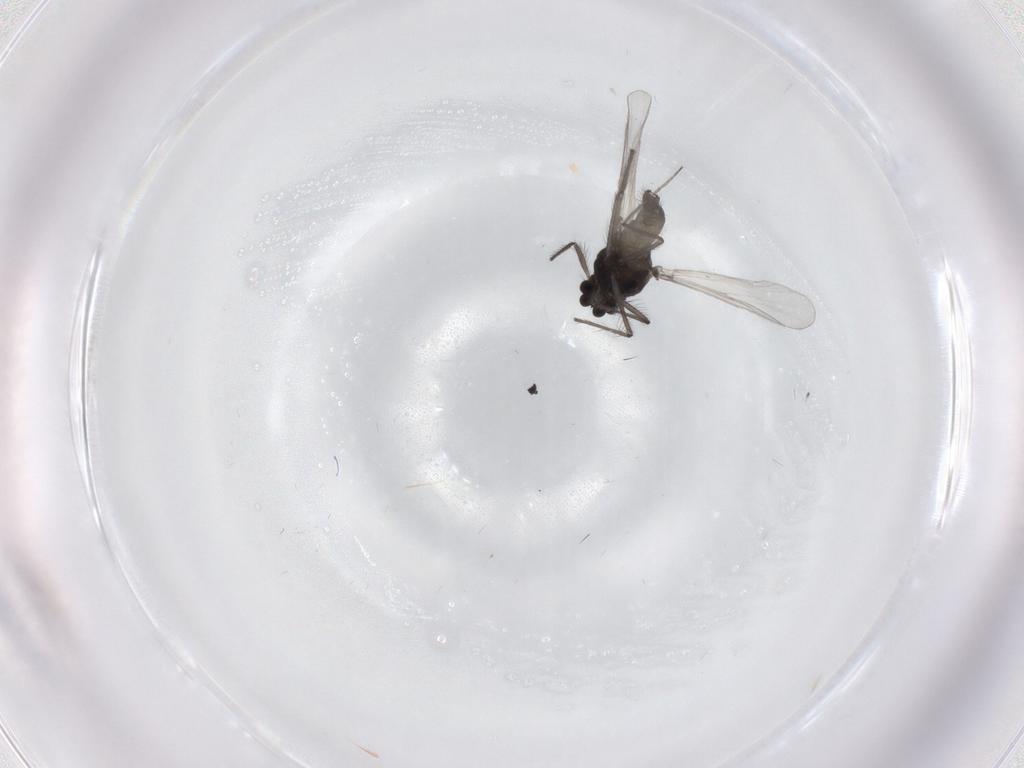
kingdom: Animalia
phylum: Arthropoda
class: Insecta
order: Diptera
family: Chironomidae
